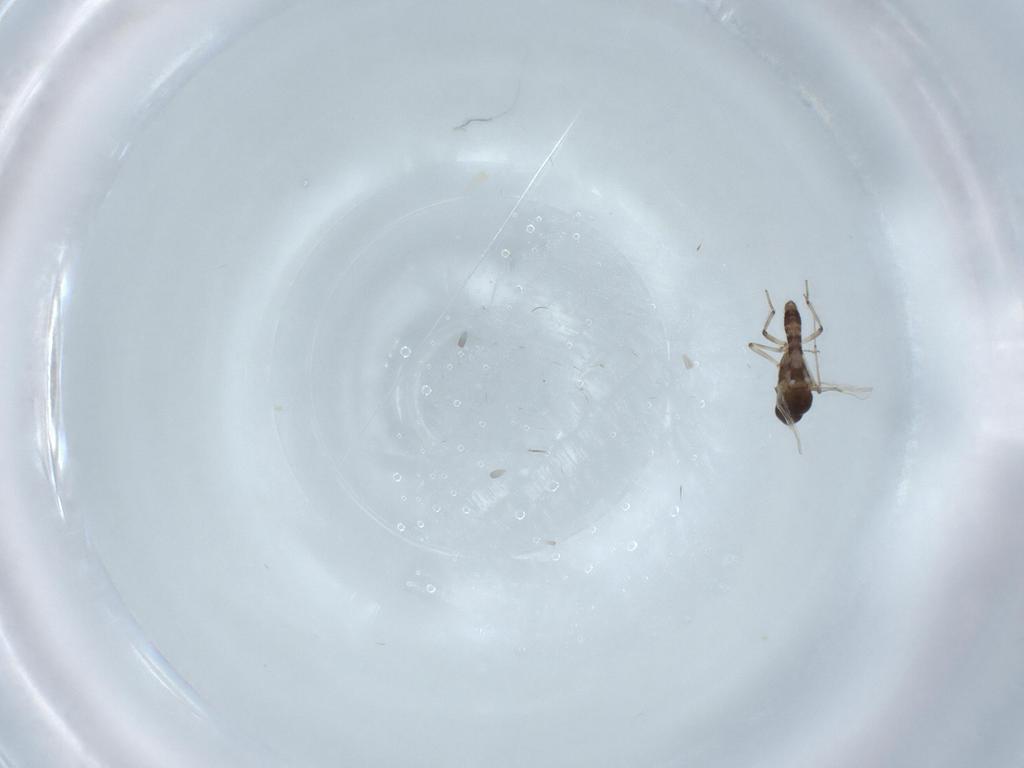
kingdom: Animalia
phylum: Arthropoda
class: Insecta
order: Diptera
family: Ceratopogonidae
